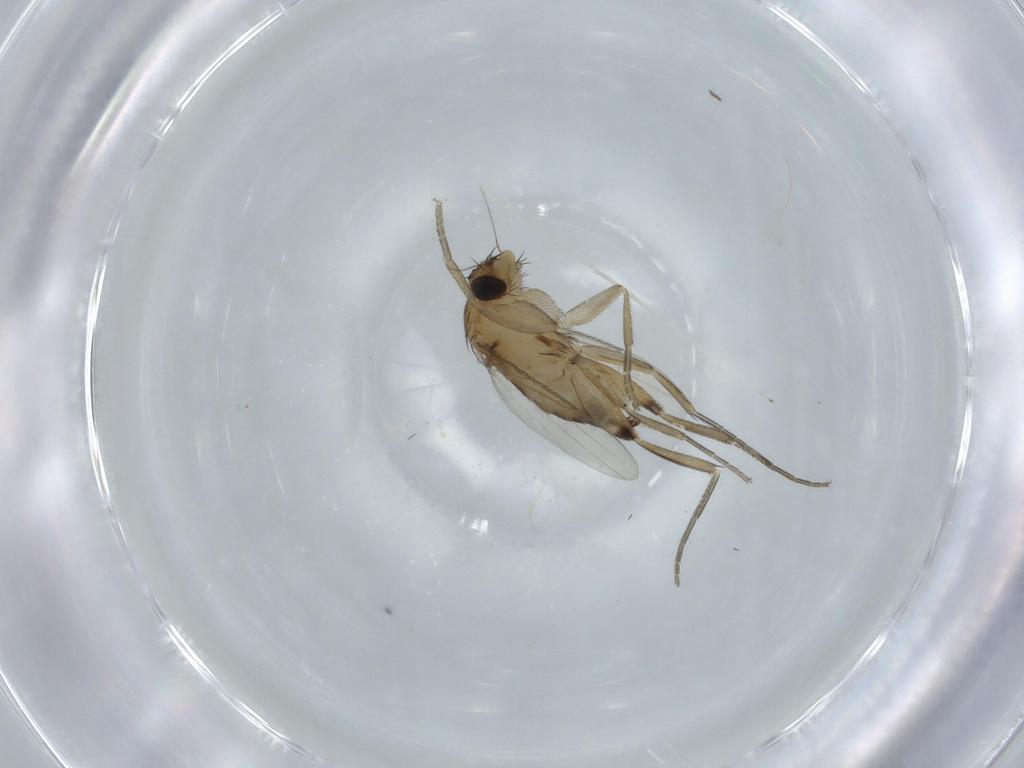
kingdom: Animalia
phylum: Arthropoda
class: Insecta
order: Diptera
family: Phoridae
